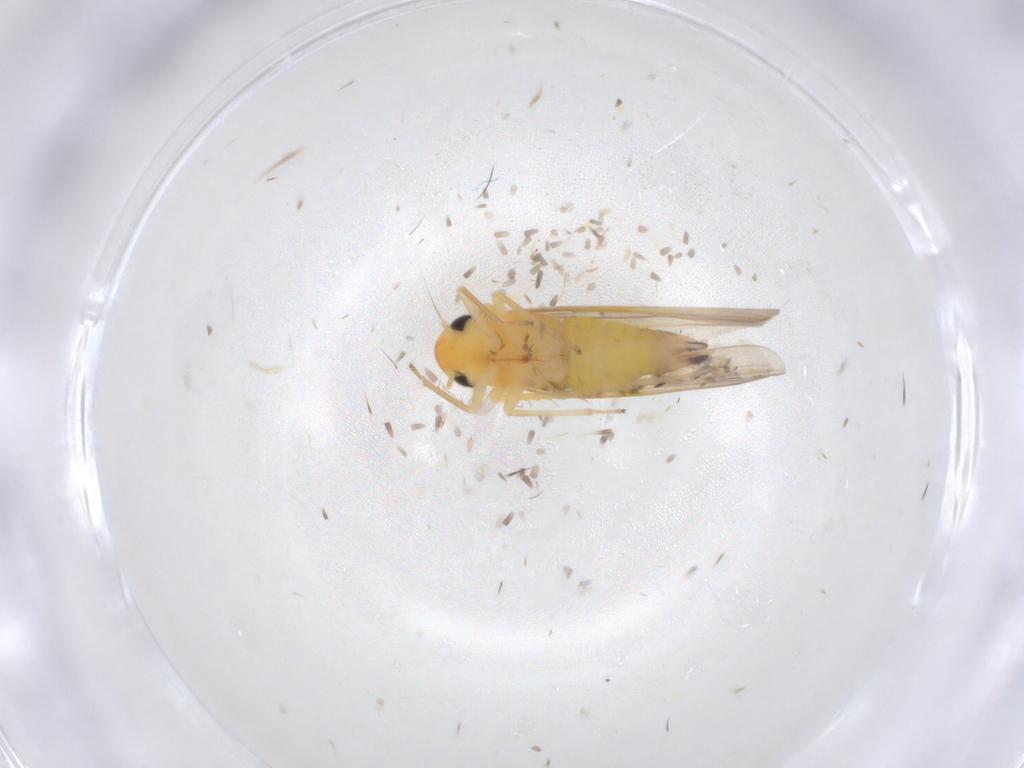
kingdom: Animalia
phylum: Arthropoda
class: Insecta
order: Hemiptera
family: Cicadellidae
